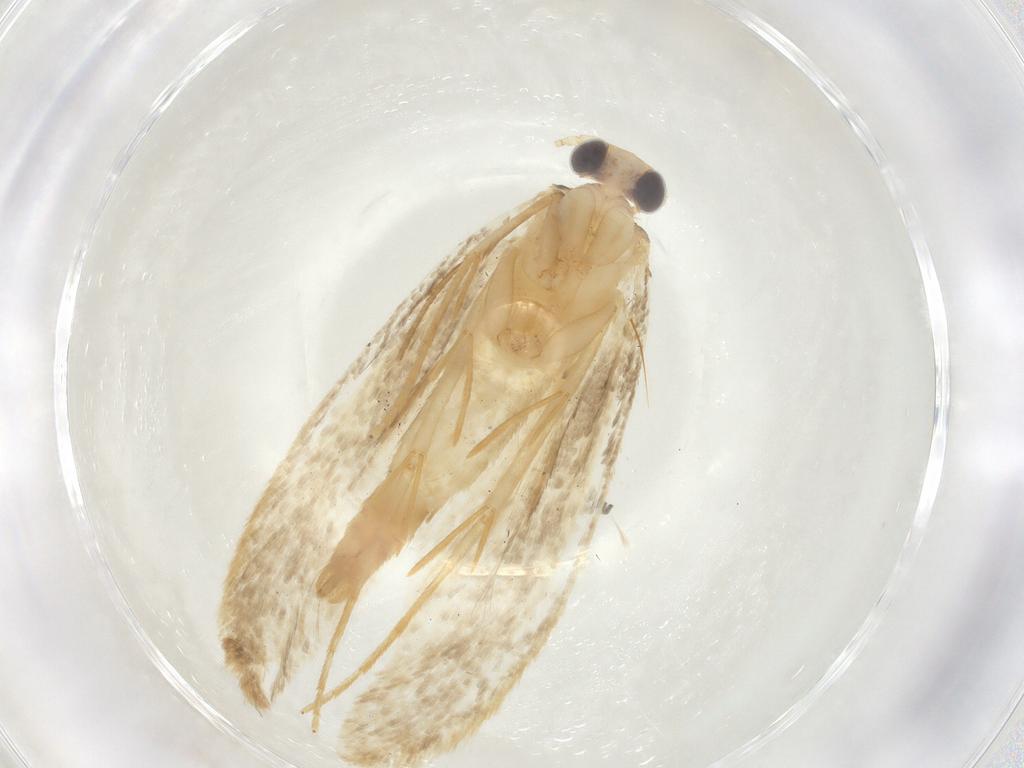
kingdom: Animalia
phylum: Arthropoda
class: Insecta
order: Lepidoptera
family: Tineidae
